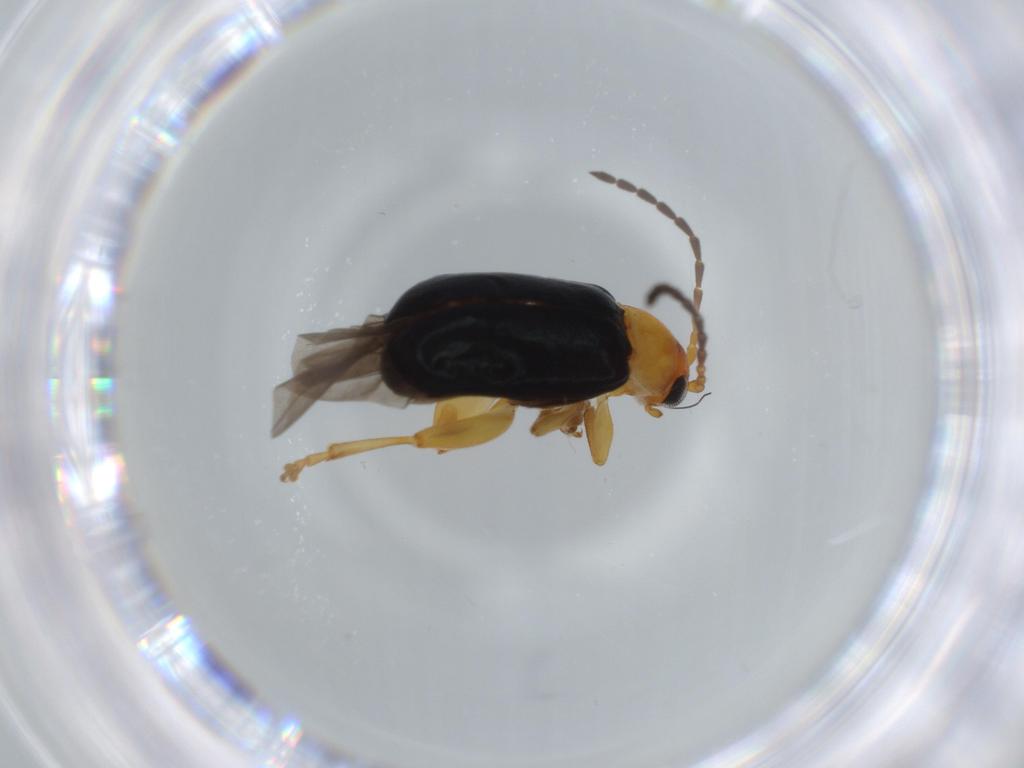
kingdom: Animalia
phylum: Arthropoda
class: Insecta
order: Coleoptera
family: Chrysomelidae
